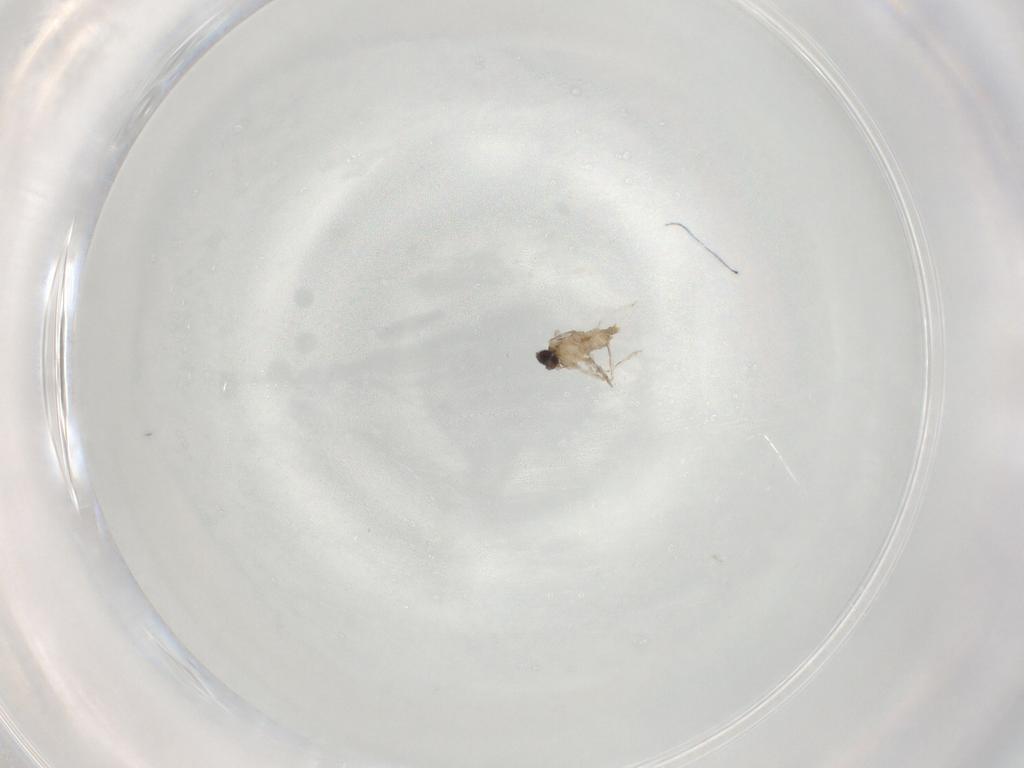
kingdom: Animalia
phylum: Arthropoda
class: Insecta
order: Diptera
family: Cecidomyiidae
